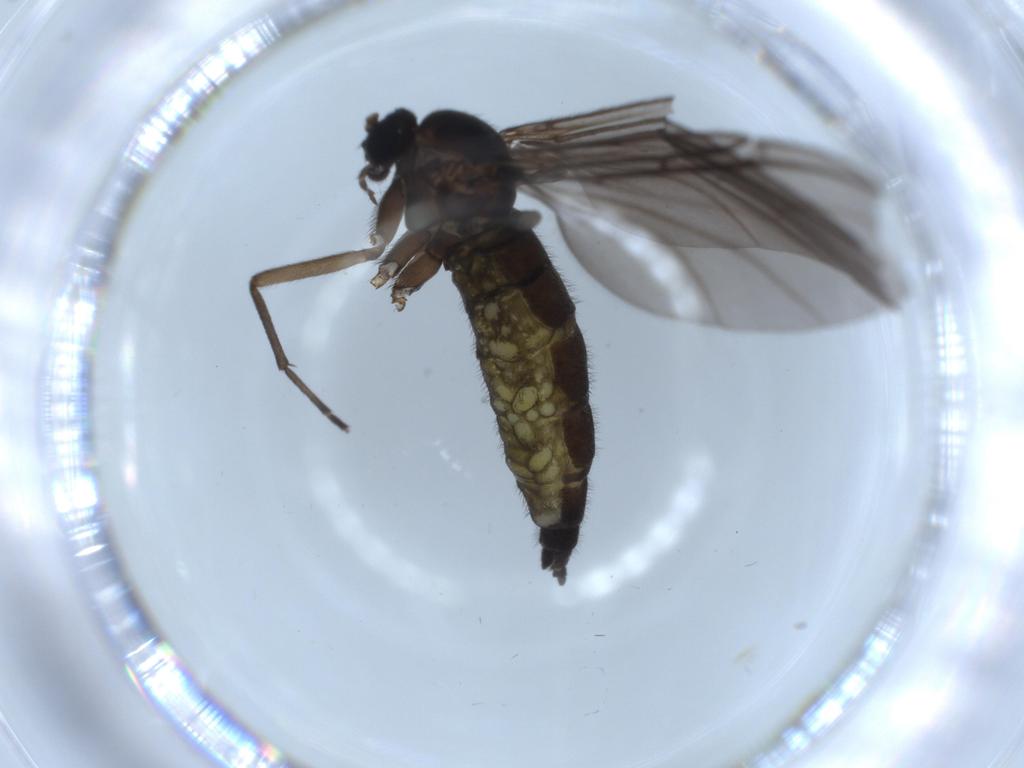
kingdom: Animalia
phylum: Arthropoda
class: Insecta
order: Diptera
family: Sciaridae
